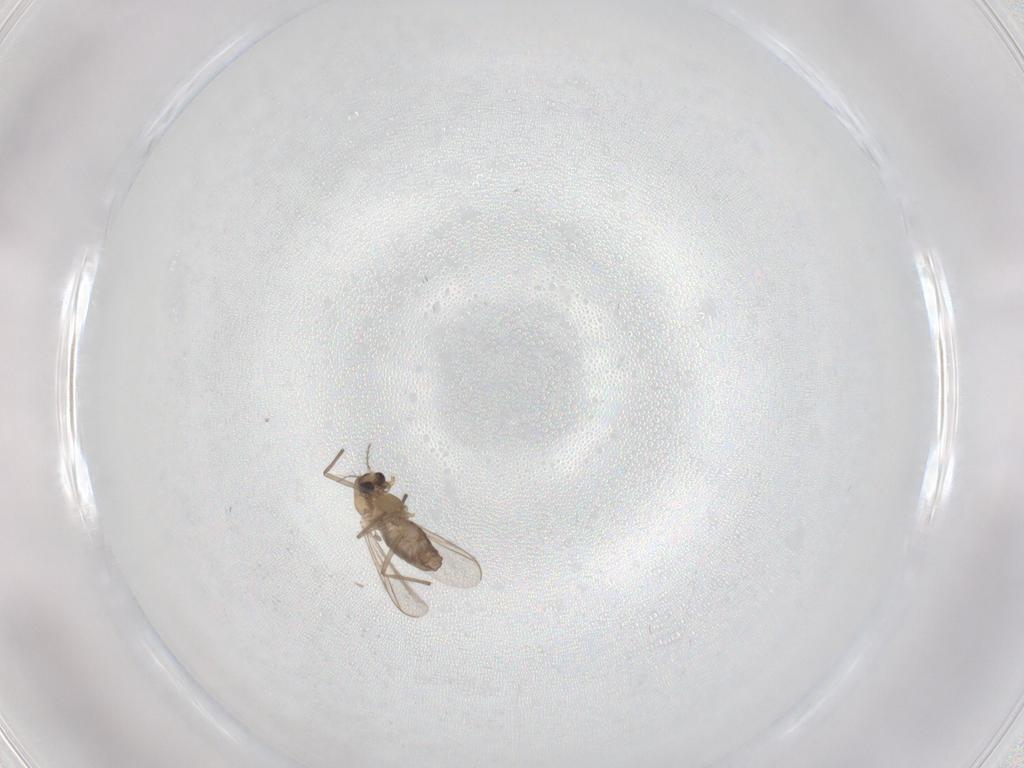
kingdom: Animalia
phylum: Arthropoda
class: Insecta
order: Diptera
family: Chironomidae
